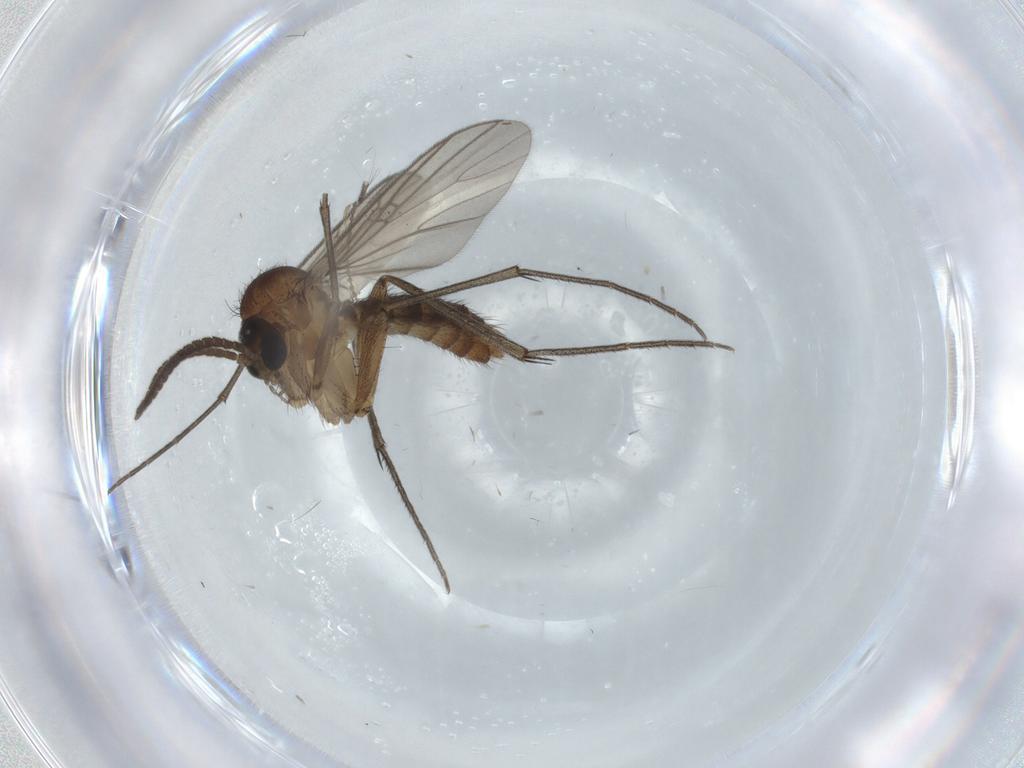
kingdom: Animalia
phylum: Arthropoda
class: Insecta
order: Diptera
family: Mycetophilidae
